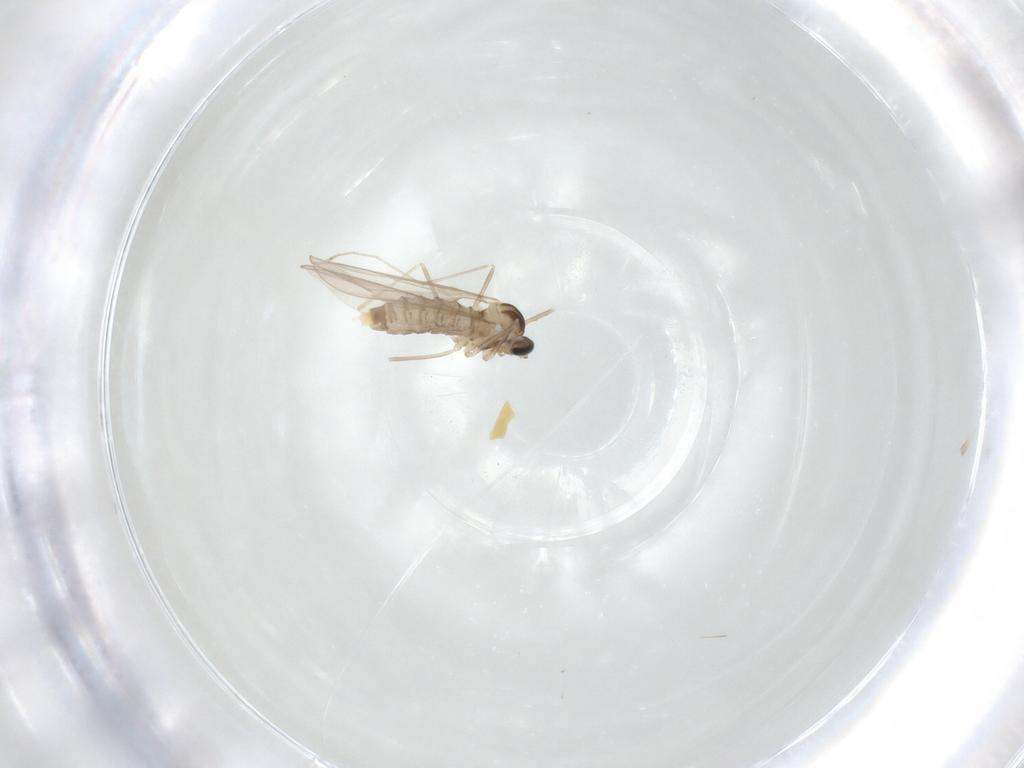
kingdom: Animalia
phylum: Arthropoda
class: Insecta
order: Diptera
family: Cecidomyiidae
